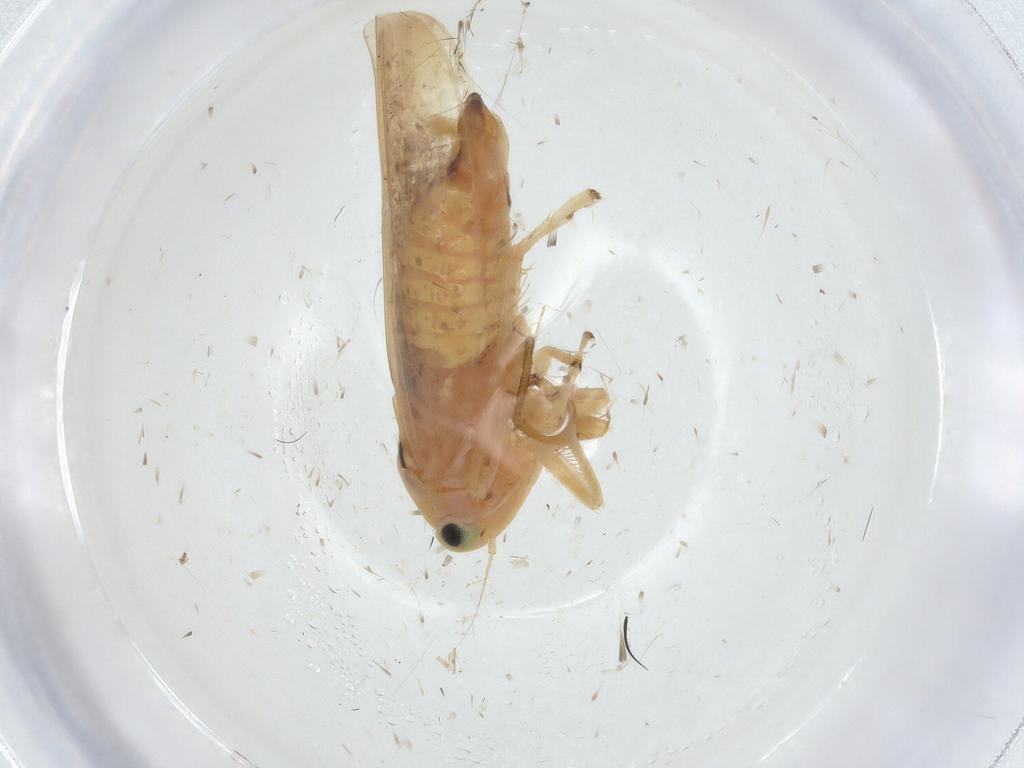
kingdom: Animalia
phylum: Arthropoda
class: Insecta
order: Hemiptera
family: Cicadellidae
